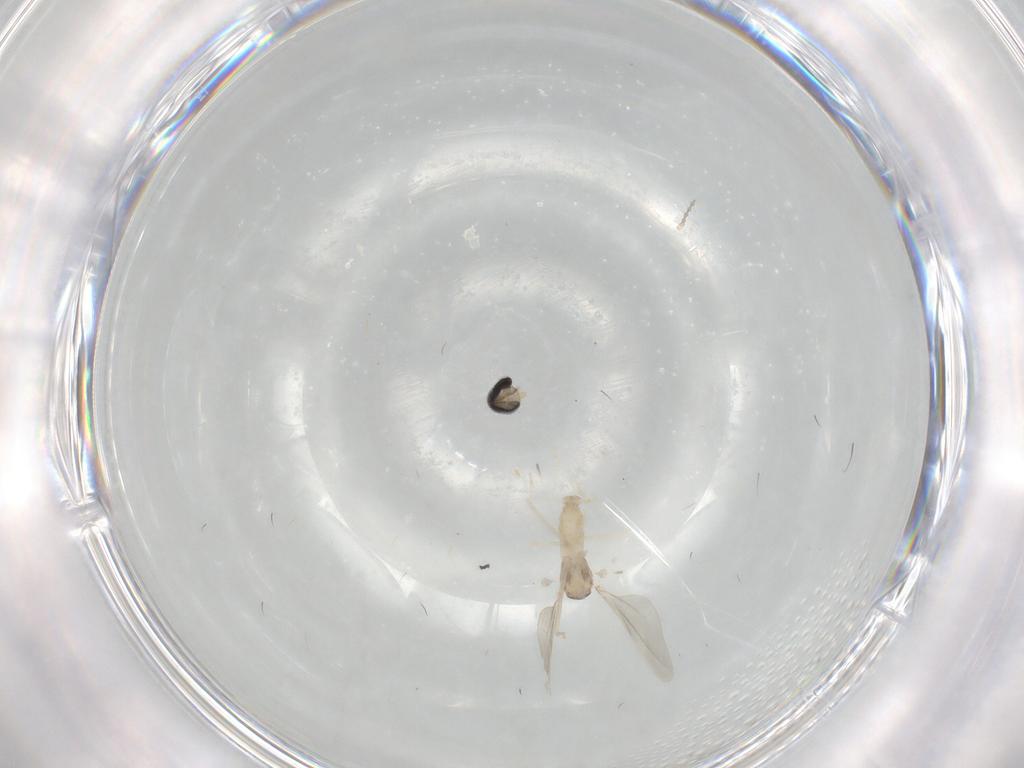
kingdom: Animalia
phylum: Arthropoda
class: Insecta
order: Diptera
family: Cecidomyiidae
